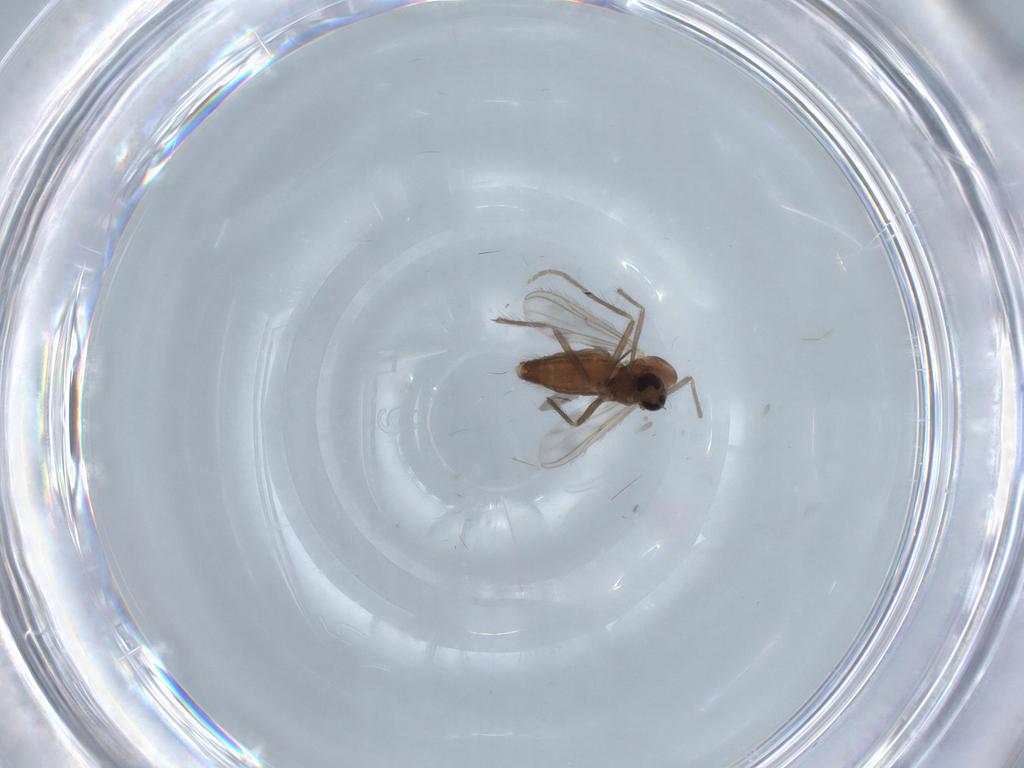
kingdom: Animalia
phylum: Arthropoda
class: Insecta
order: Diptera
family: Chironomidae
